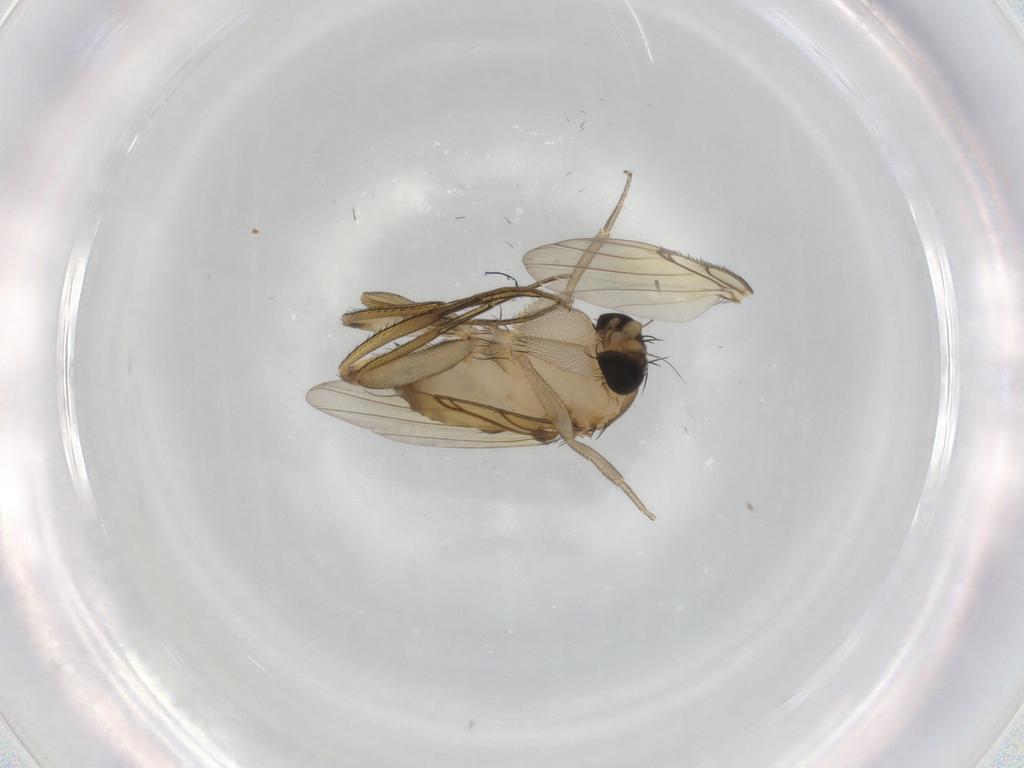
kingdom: Animalia
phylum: Arthropoda
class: Insecta
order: Diptera
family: Phoridae
